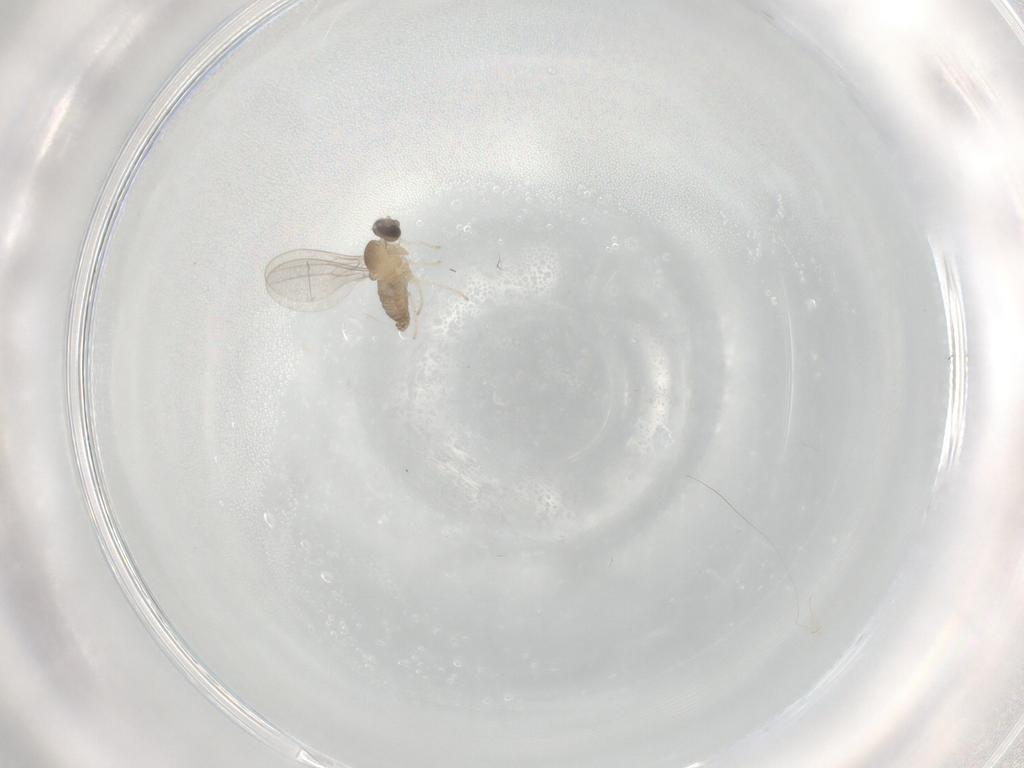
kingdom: Animalia
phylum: Arthropoda
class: Insecta
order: Diptera
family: Cecidomyiidae
